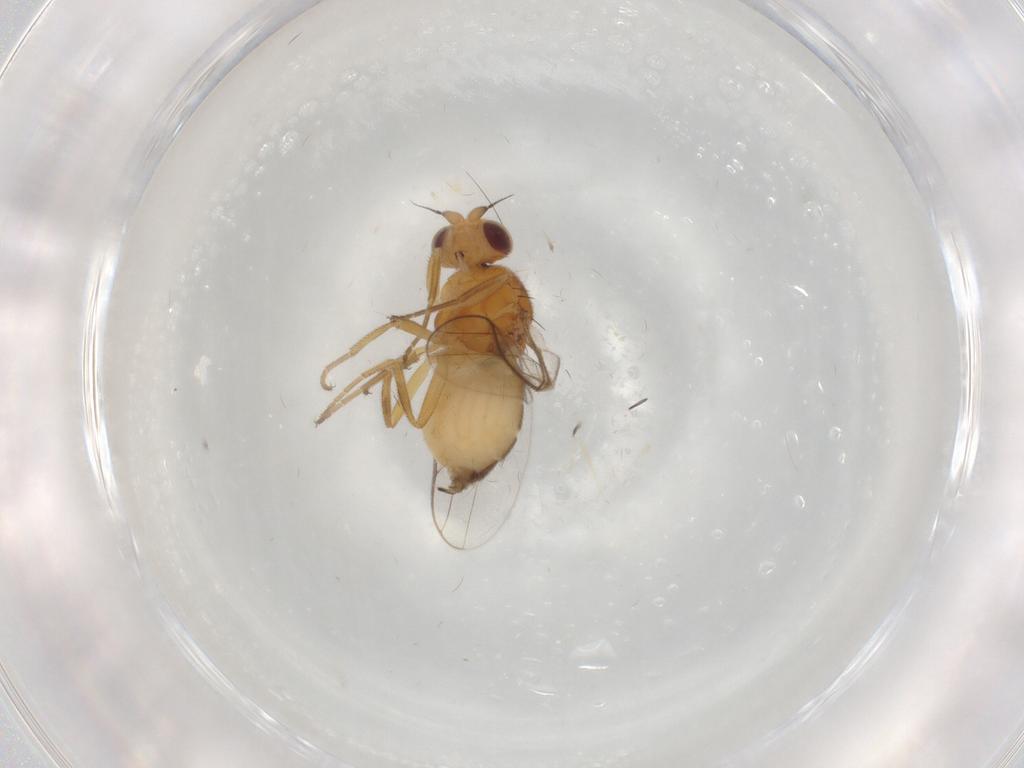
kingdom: Animalia
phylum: Arthropoda
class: Insecta
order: Diptera
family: Chloropidae
